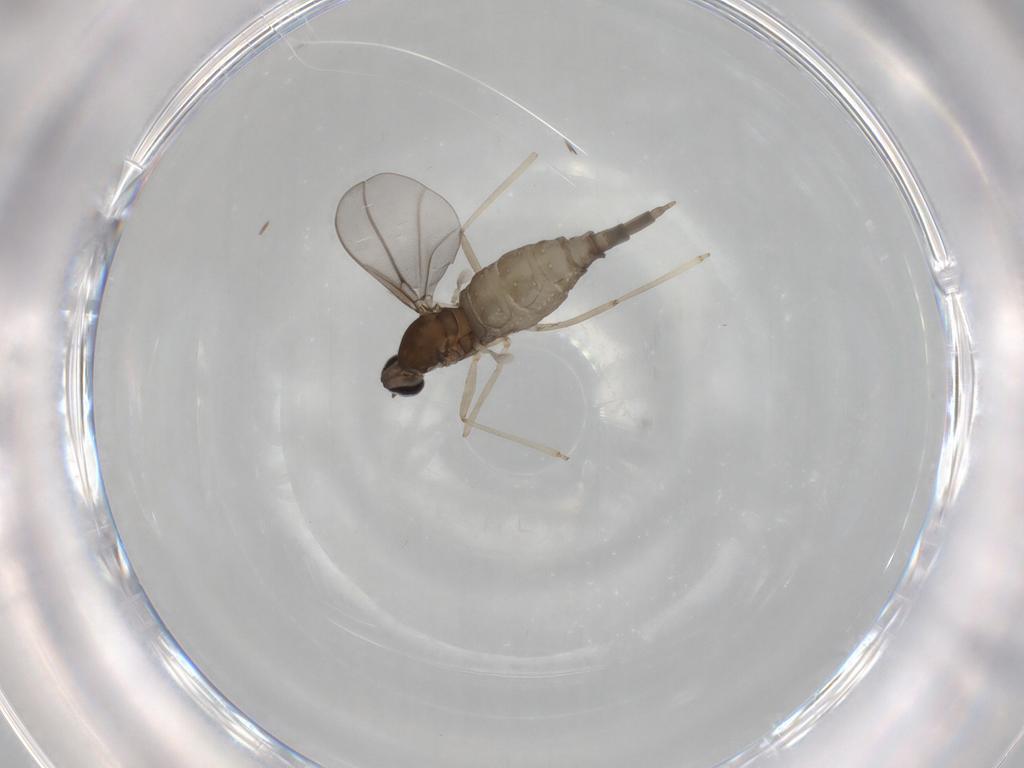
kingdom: Animalia
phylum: Arthropoda
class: Insecta
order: Diptera
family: Cecidomyiidae
